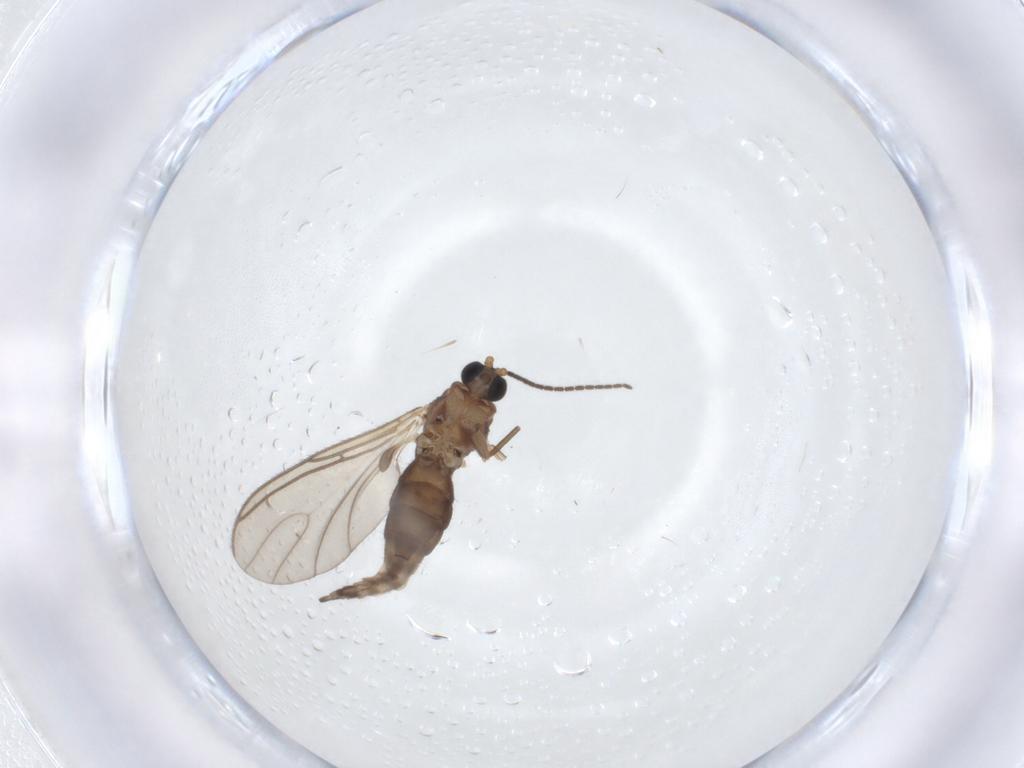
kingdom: Animalia
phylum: Arthropoda
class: Insecta
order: Diptera
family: Sciaridae
